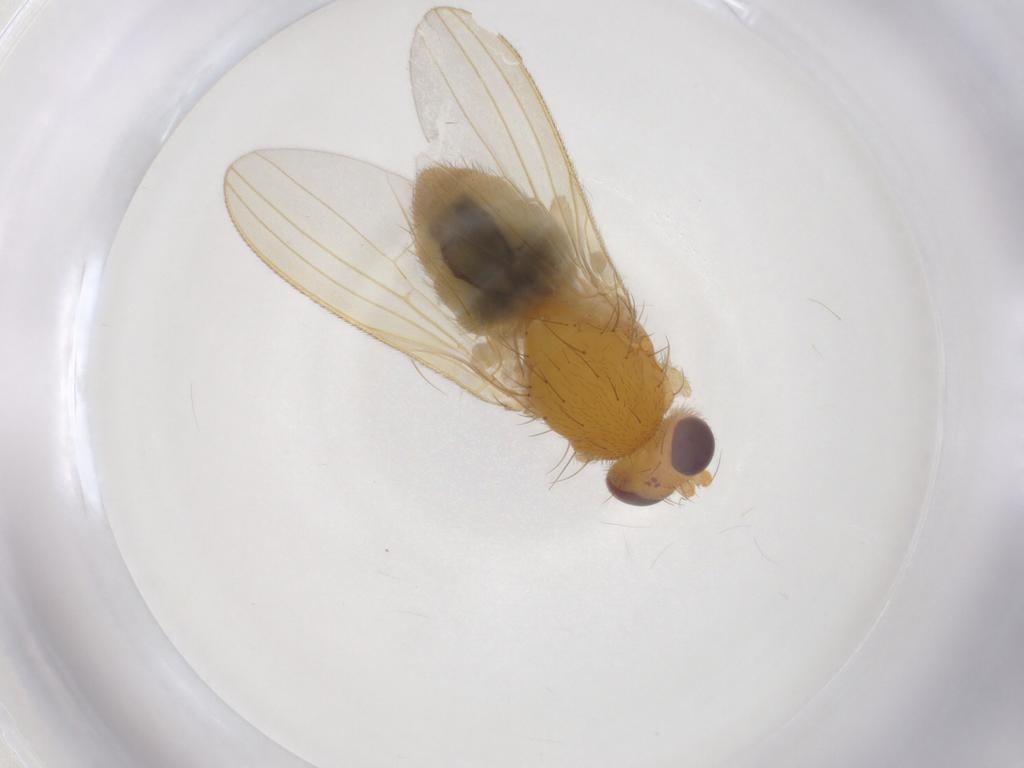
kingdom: Animalia
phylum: Arthropoda
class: Insecta
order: Diptera
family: Natalimyzidae
